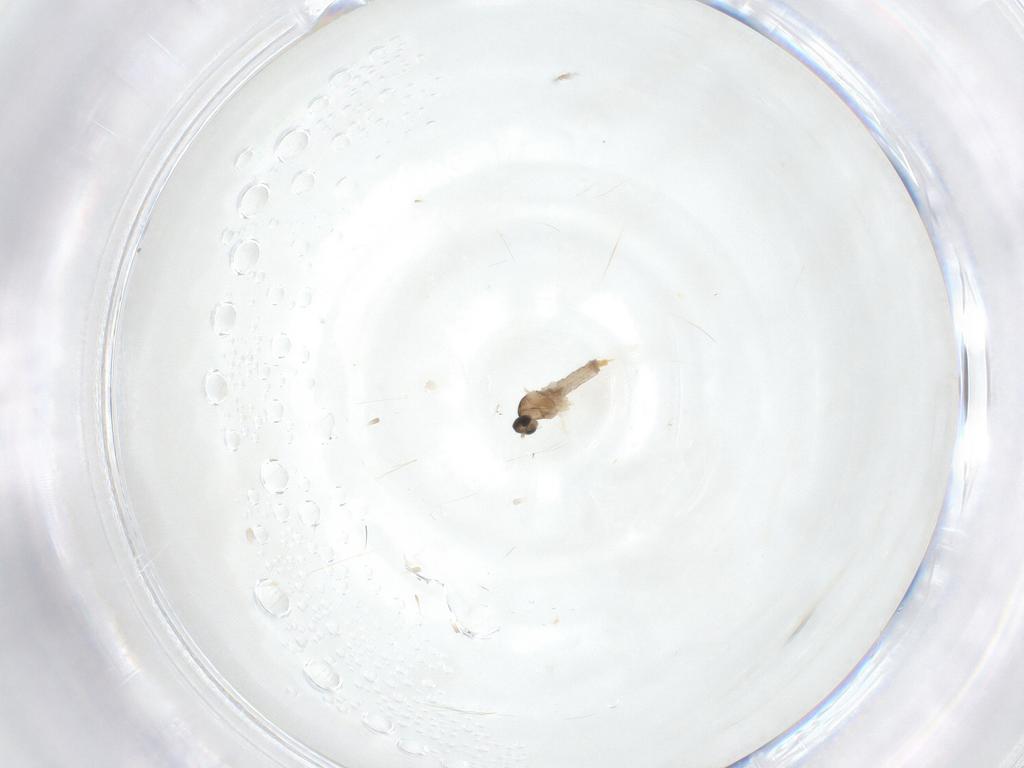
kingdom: Animalia
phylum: Arthropoda
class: Insecta
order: Diptera
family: Cecidomyiidae
